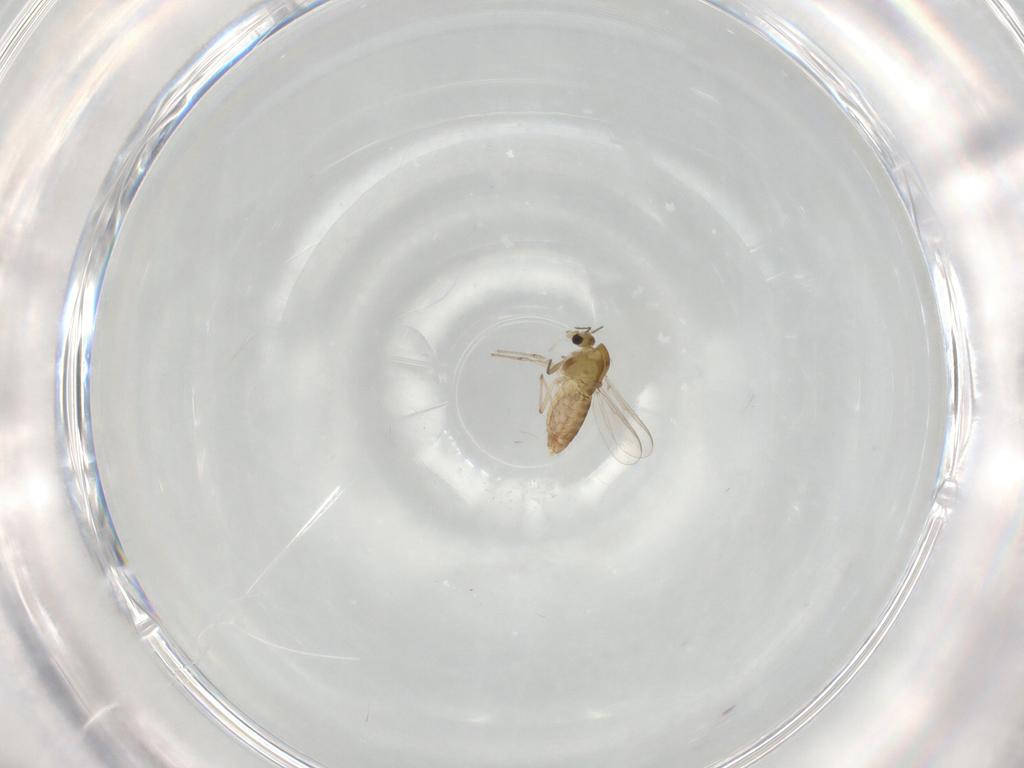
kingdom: Animalia
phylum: Arthropoda
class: Insecta
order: Diptera
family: Chironomidae
